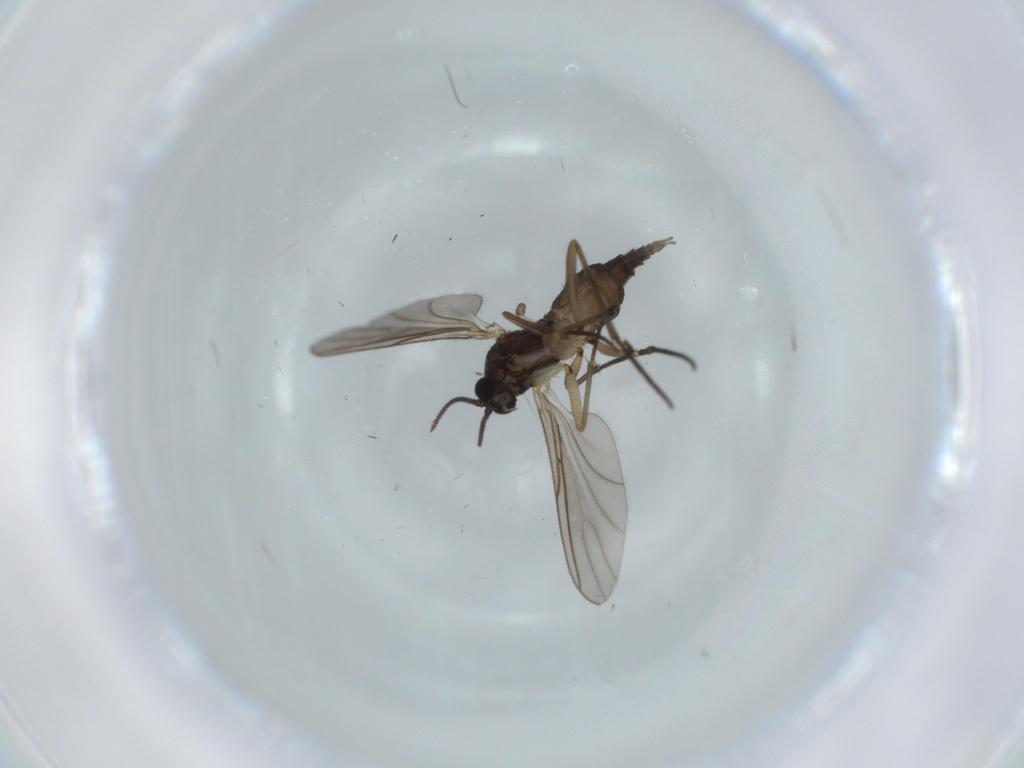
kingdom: Animalia
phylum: Arthropoda
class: Insecta
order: Diptera
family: Sciaridae
